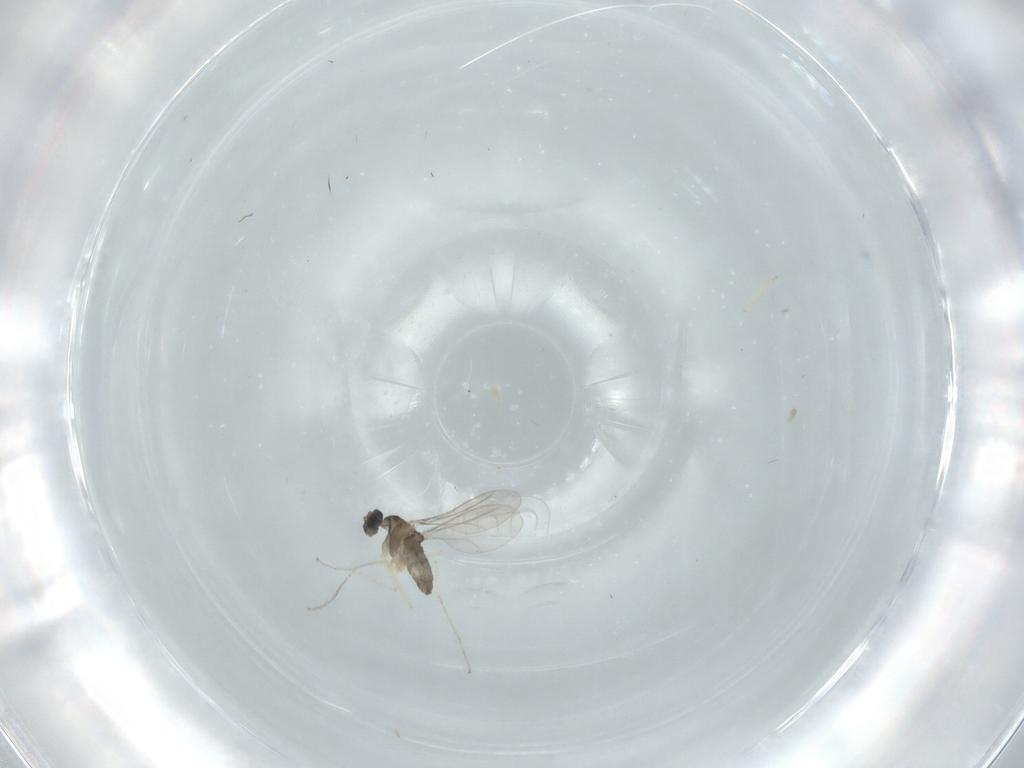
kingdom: Animalia
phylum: Arthropoda
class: Insecta
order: Diptera
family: Cecidomyiidae
